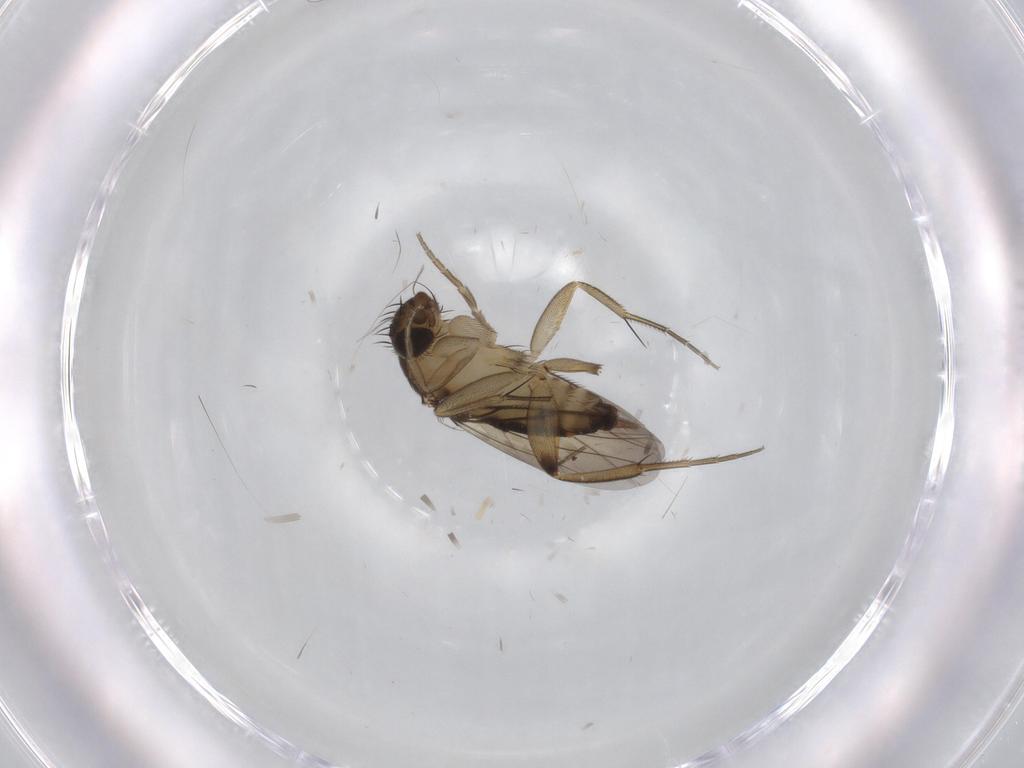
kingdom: Animalia
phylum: Arthropoda
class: Insecta
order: Diptera
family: Phoridae
